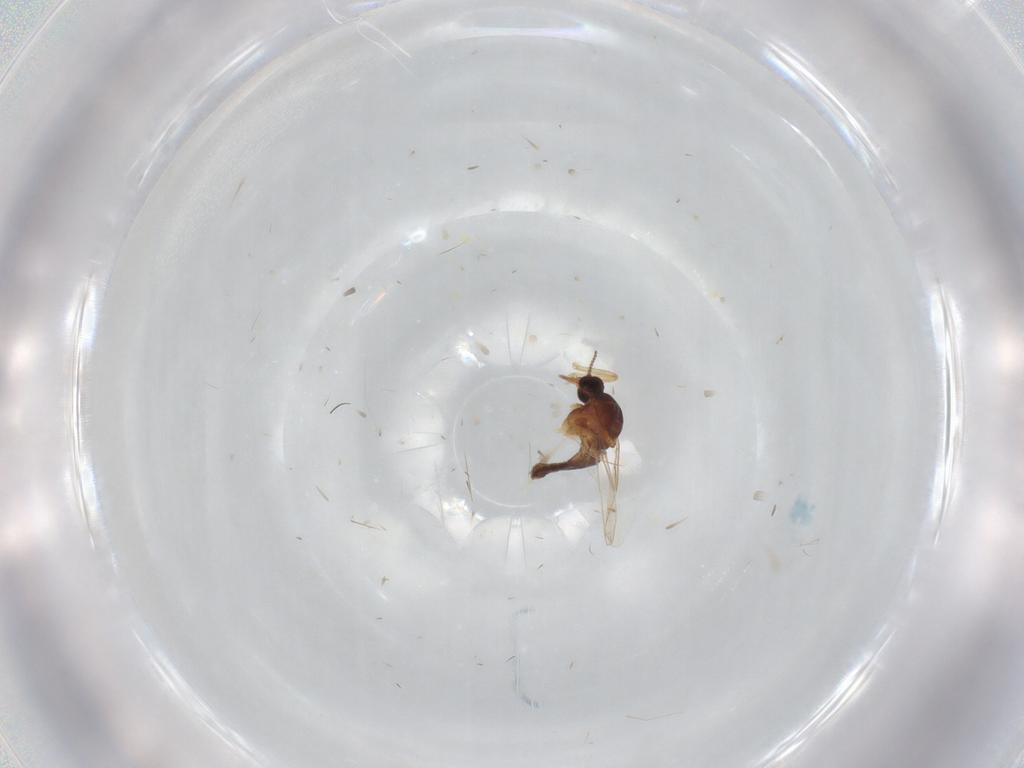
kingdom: Animalia
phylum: Arthropoda
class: Insecta
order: Diptera
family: Ceratopogonidae
